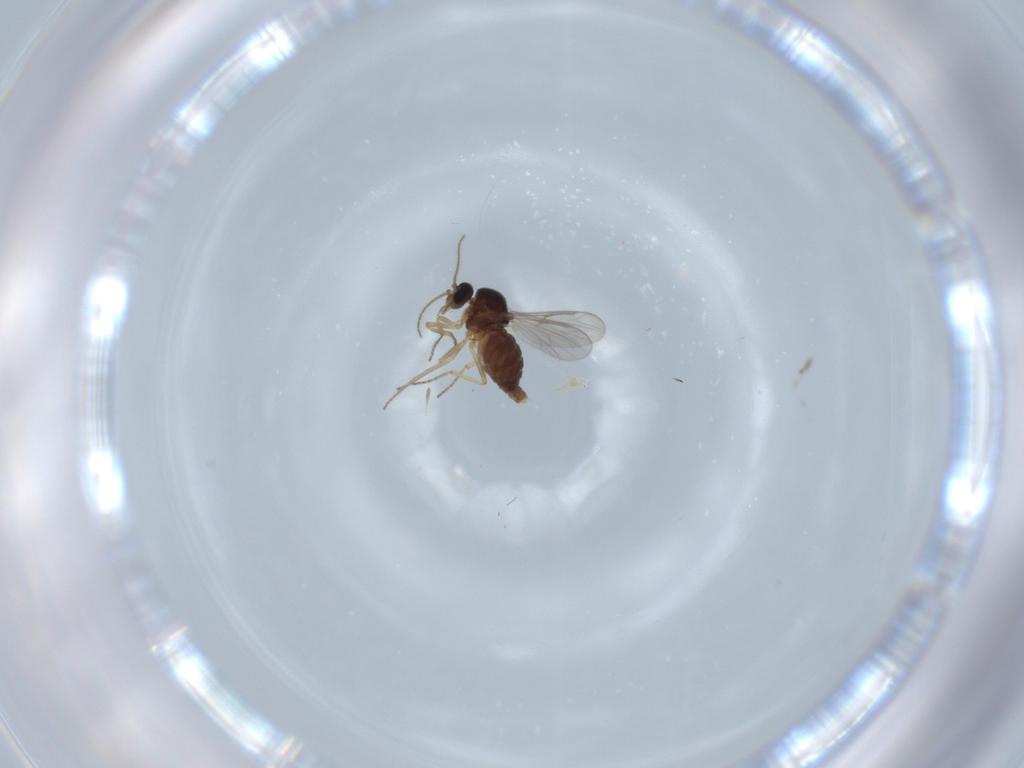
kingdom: Animalia
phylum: Arthropoda
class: Insecta
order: Diptera
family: Ceratopogonidae
